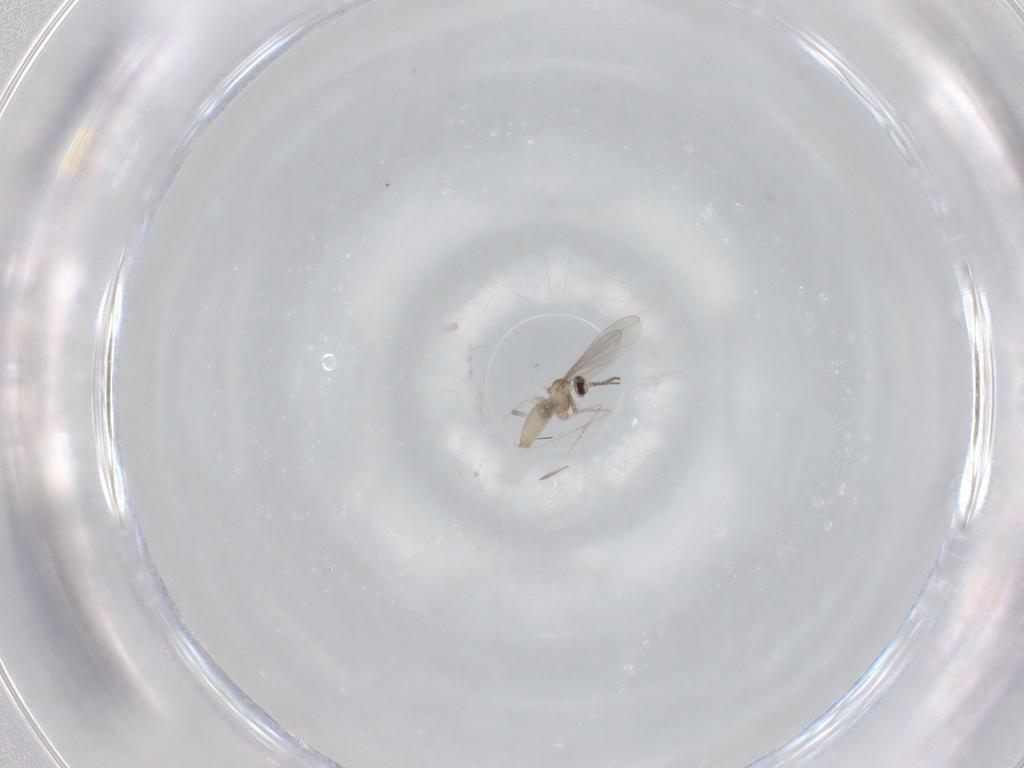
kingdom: Animalia
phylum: Arthropoda
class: Insecta
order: Diptera
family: Cecidomyiidae
